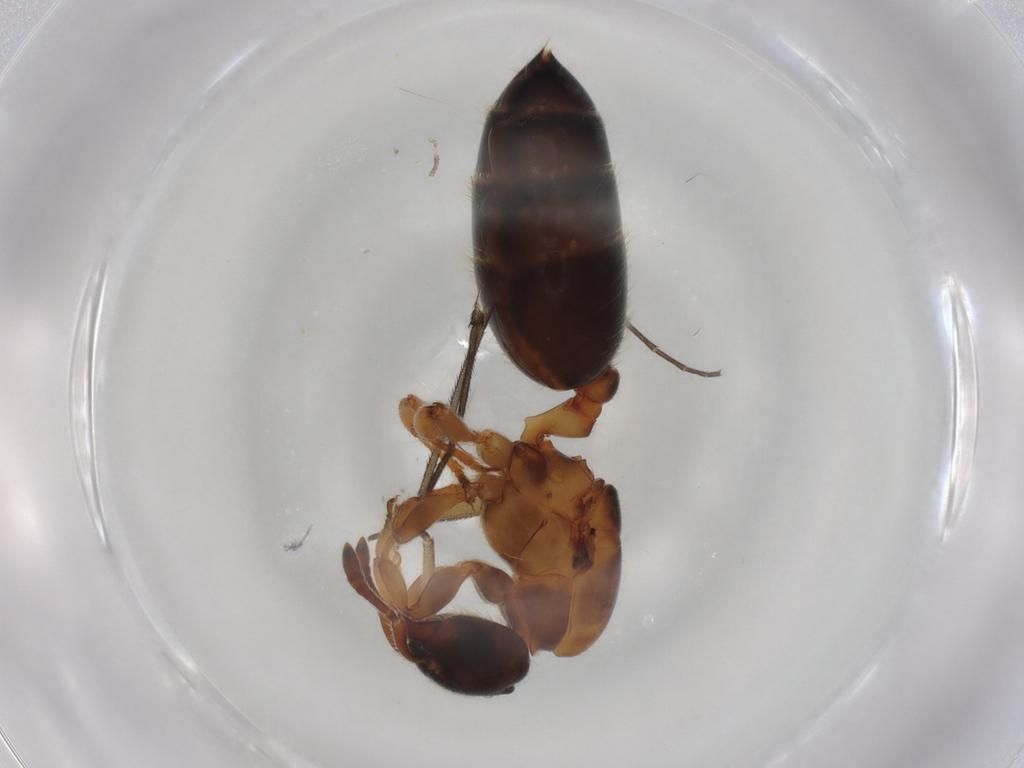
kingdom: Animalia
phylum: Arthropoda
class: Insecta
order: Hymenoptera
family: Formicidae
